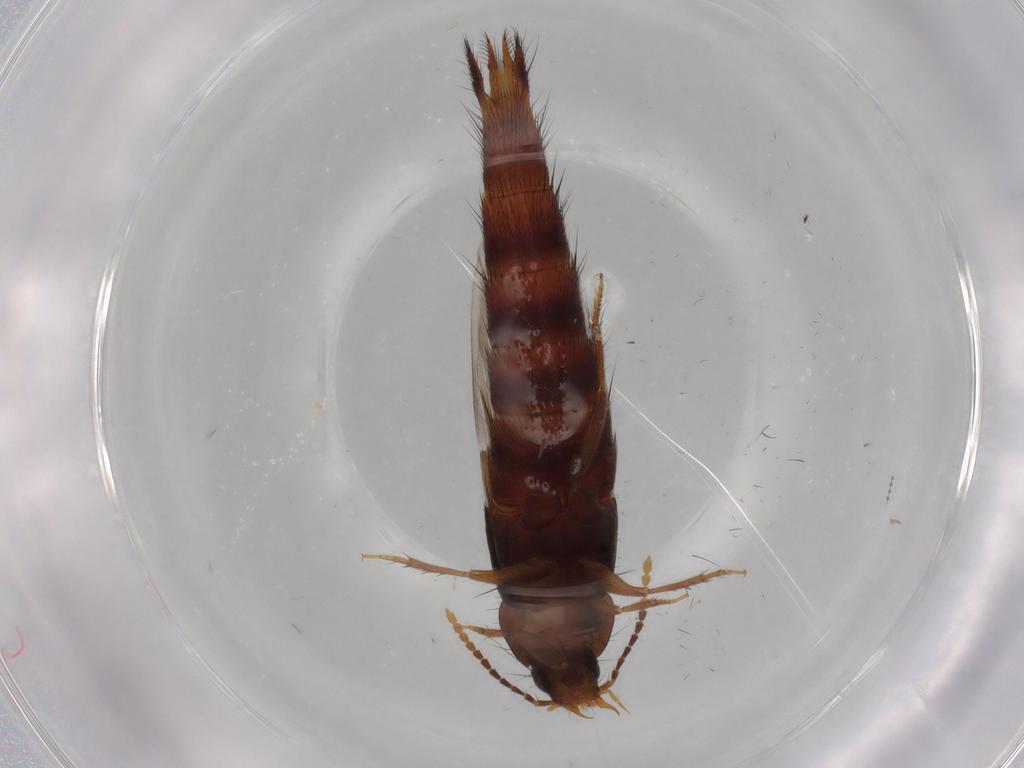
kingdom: Animalia
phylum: Arthropoda
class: Insecta
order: Coleoptera
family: Staphylinidae
